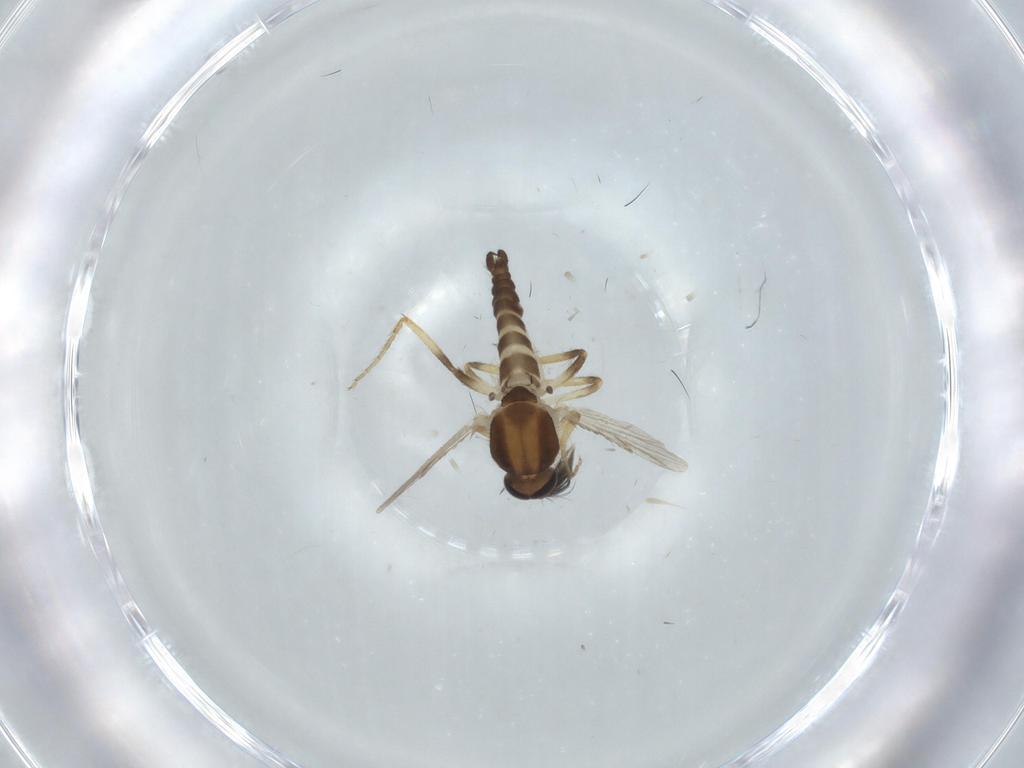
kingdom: Animalia
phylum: Arthropoda
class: Insecta
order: Diptera
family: Ceratopogonidae
